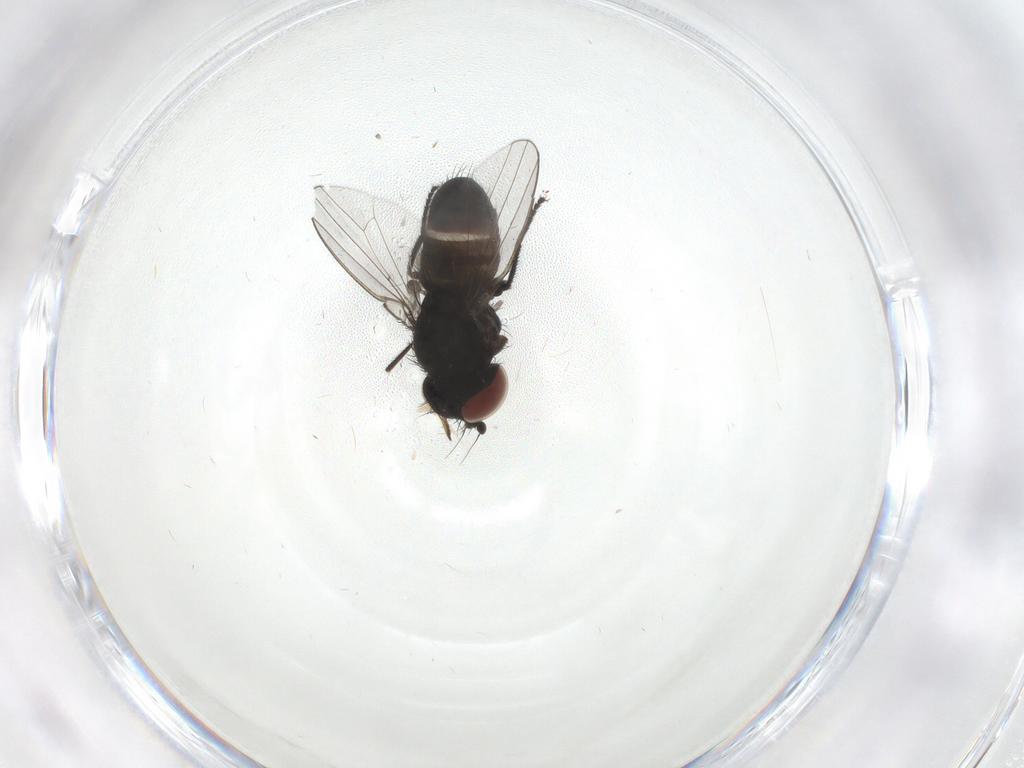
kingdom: Animalia
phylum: Arthropoda
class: Insecta
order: Diptera
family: Milichiidae
